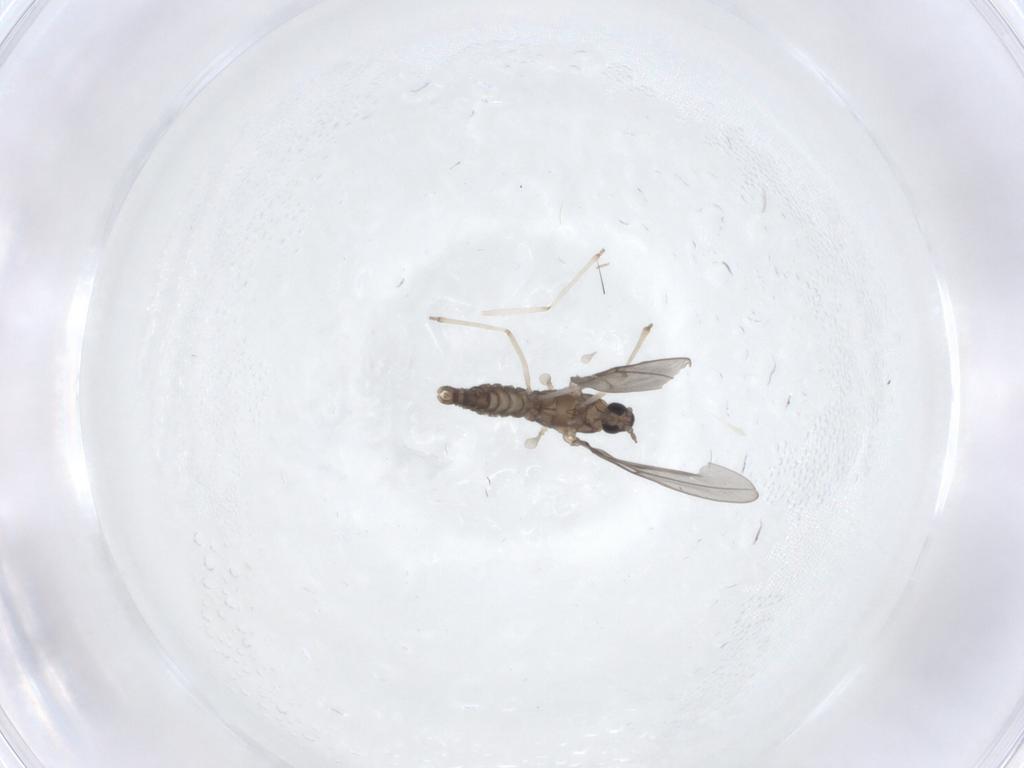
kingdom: Animalia
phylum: Arthropoda
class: Insecta
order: Diptera
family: Cecidomyiidae
